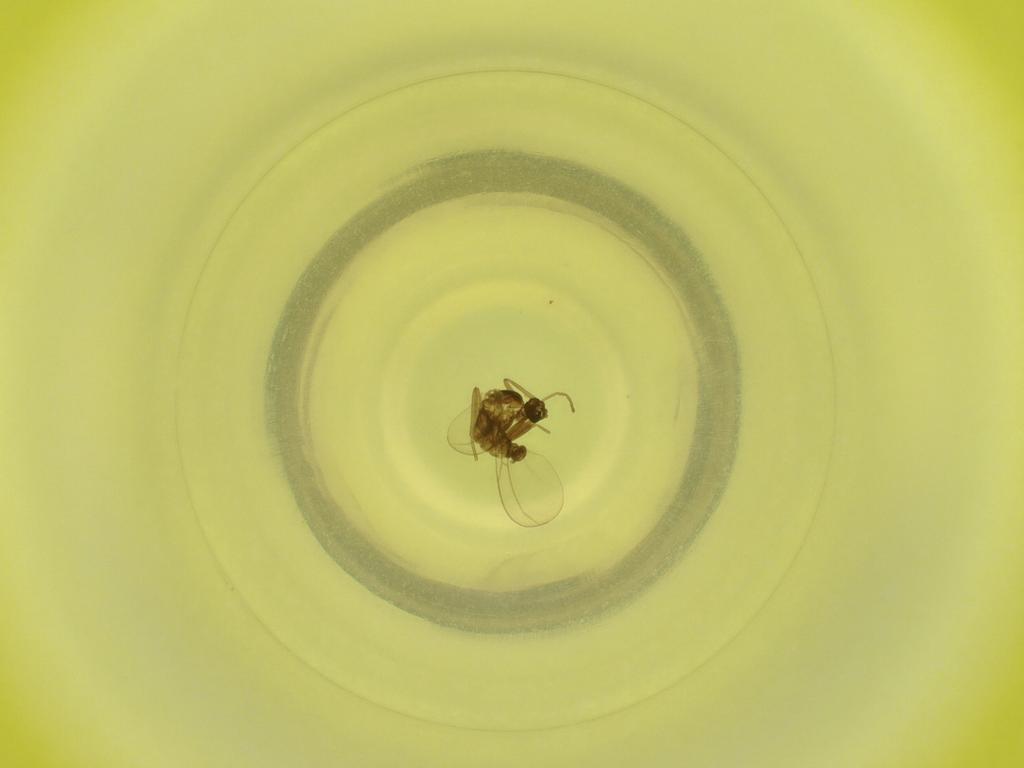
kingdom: Animalia
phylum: Arthropoda
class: Insecta
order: Diptera
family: Cecidomyiidae
